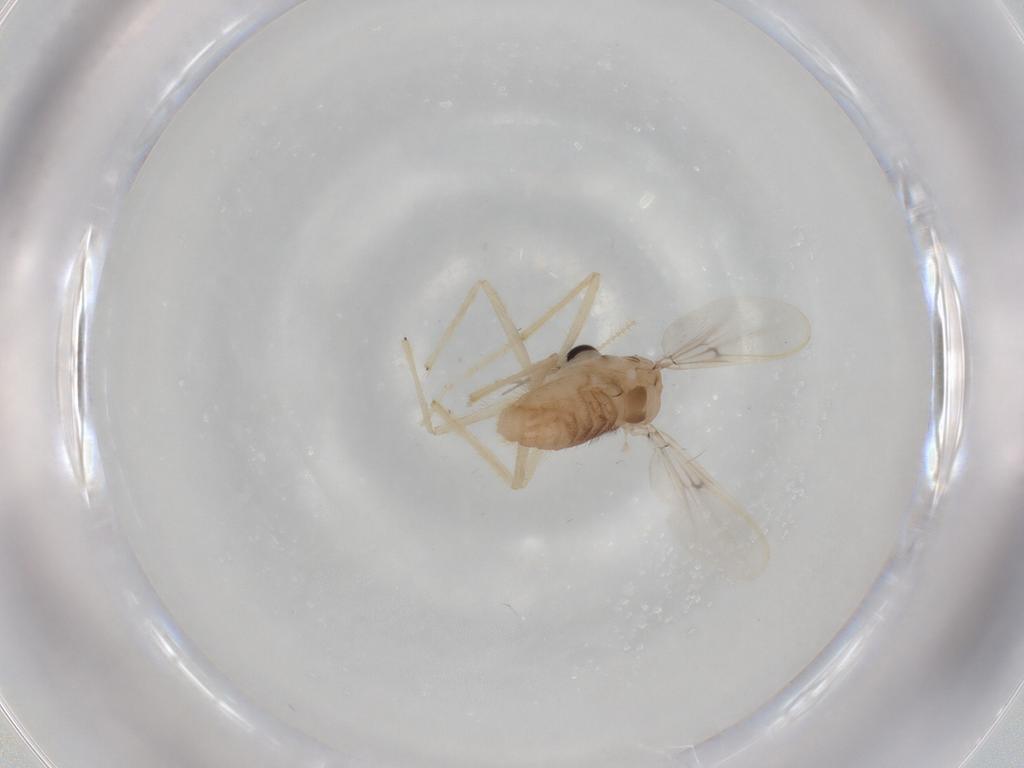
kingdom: Animalia
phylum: Arthropoda
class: Insecta
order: Diptera
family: Chironomidae
